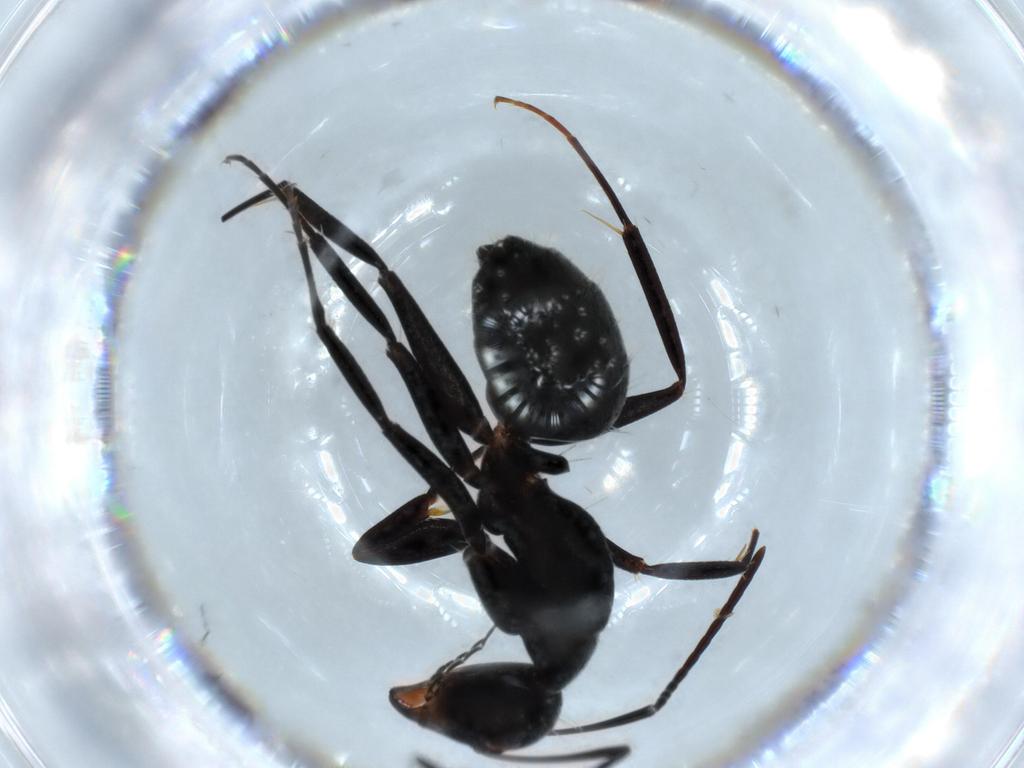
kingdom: Animalia
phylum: Arthropoda
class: Insecta
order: Hymenoptera
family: Formicidae
